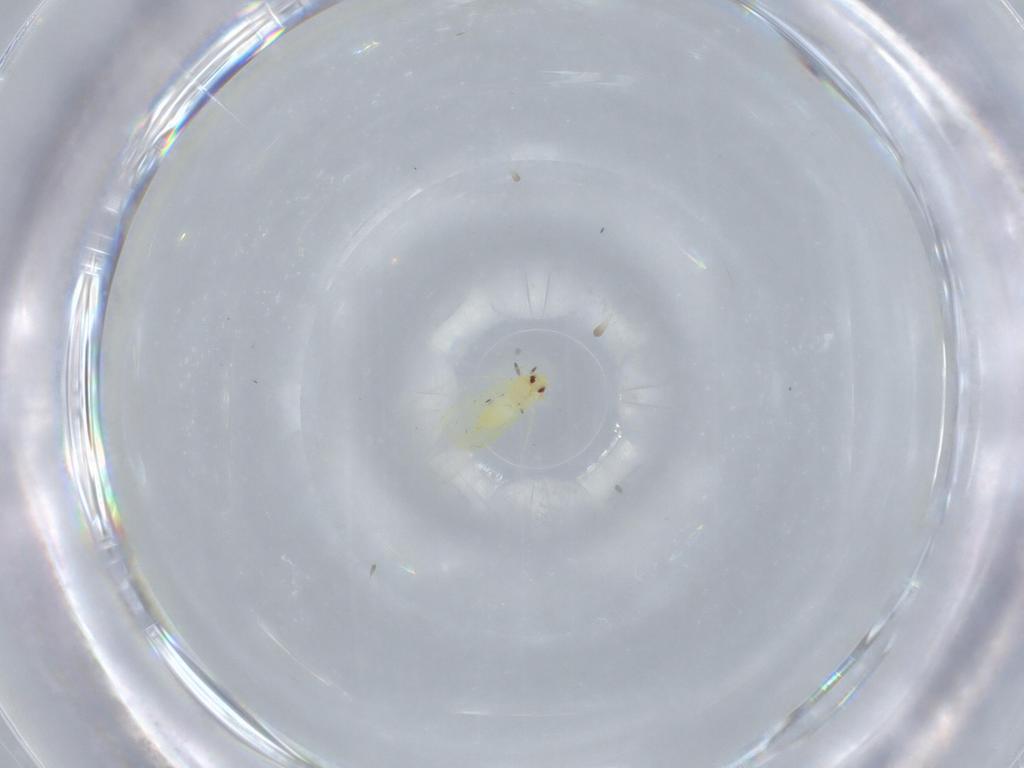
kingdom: Animalia
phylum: Arthropoda
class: Insecta
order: Hemiptera
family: Aleyrodidae
